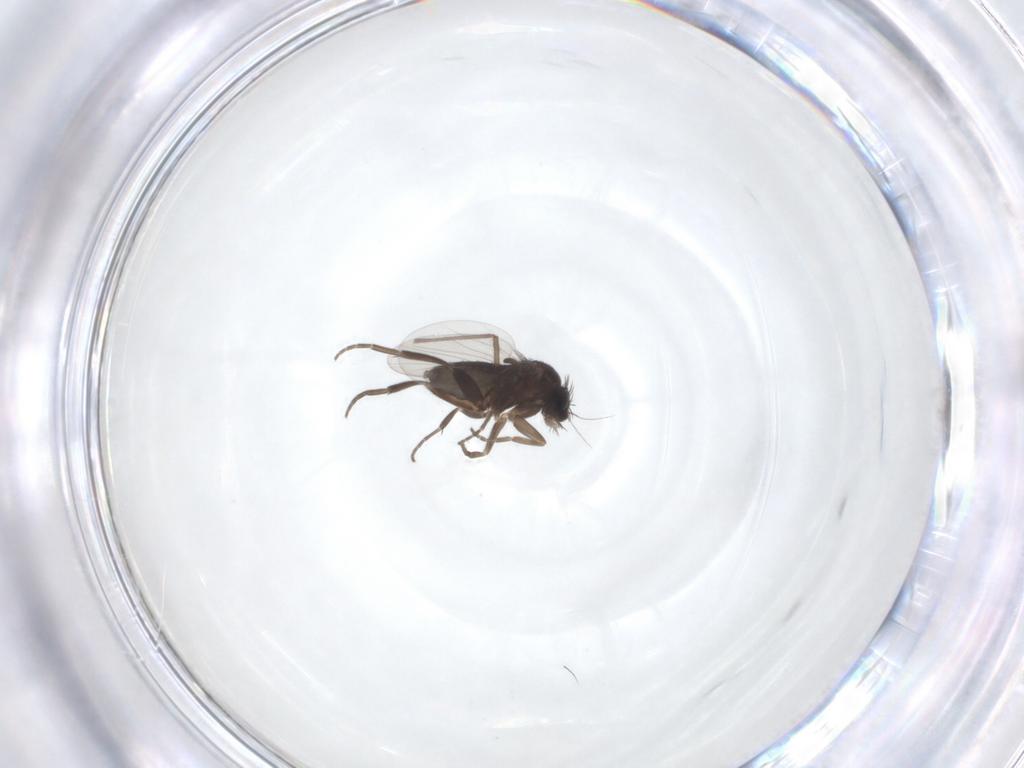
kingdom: Animalia
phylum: Arthropoda
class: Insecta
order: Diptera
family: Phoridae
